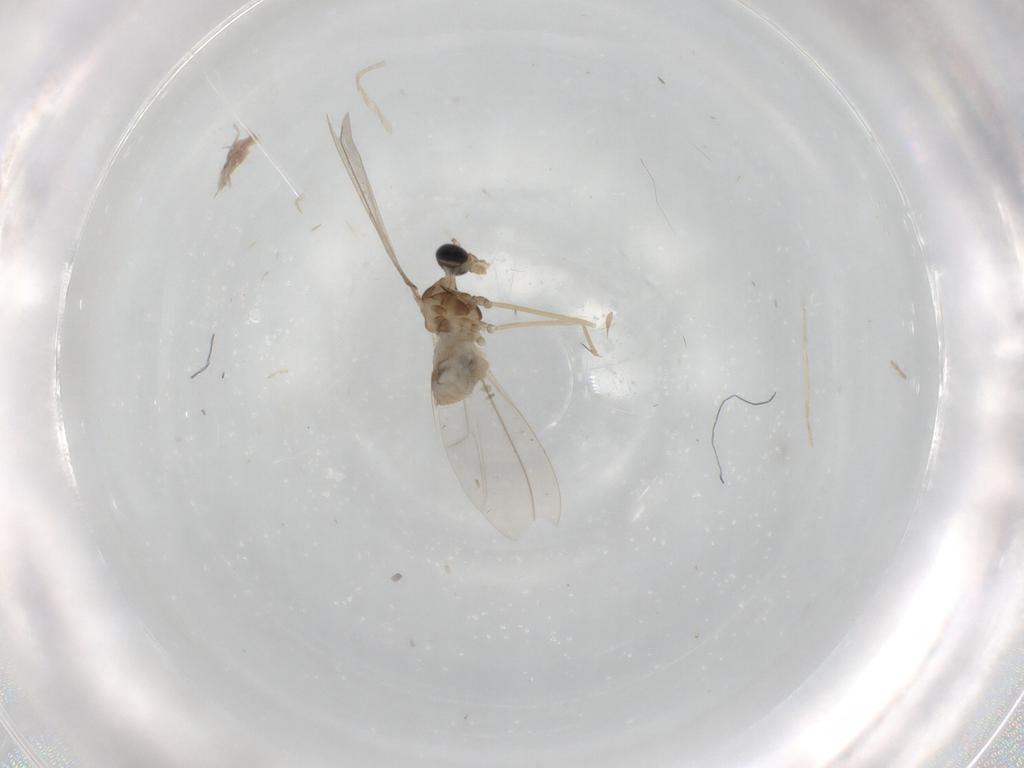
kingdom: Animalia
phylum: Arthropoda
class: Insecta
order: Diptera
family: Cecidomyiidae
